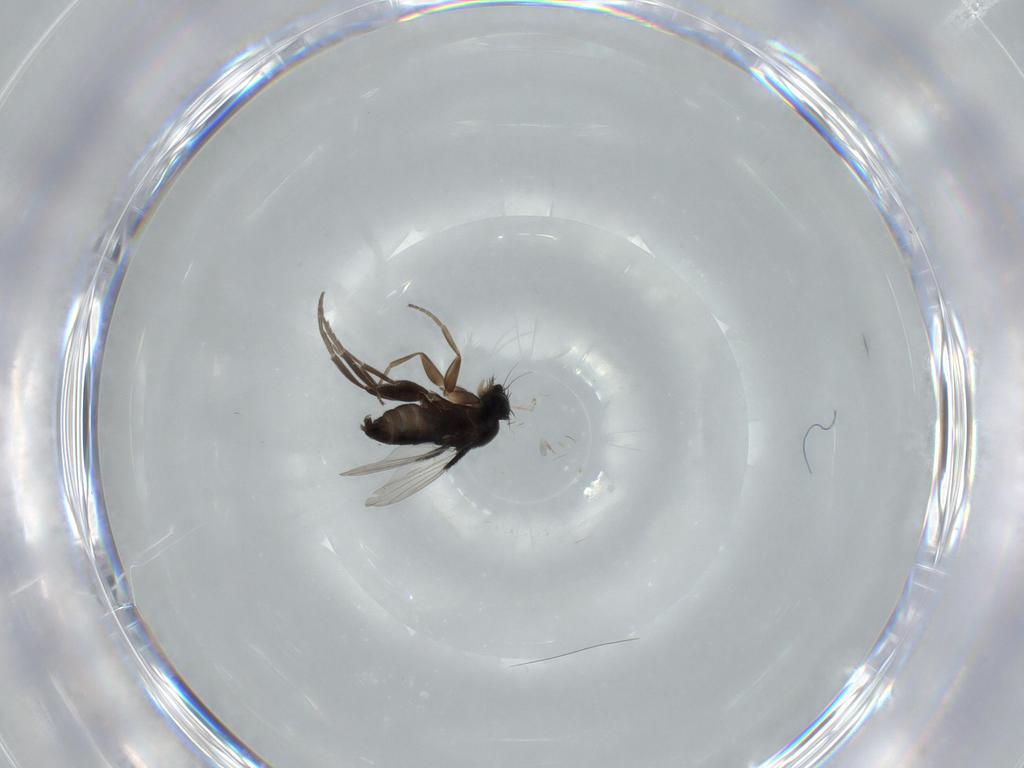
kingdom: Animalia
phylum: Arthropoda
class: Insecta
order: Diptera
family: Phoridae
